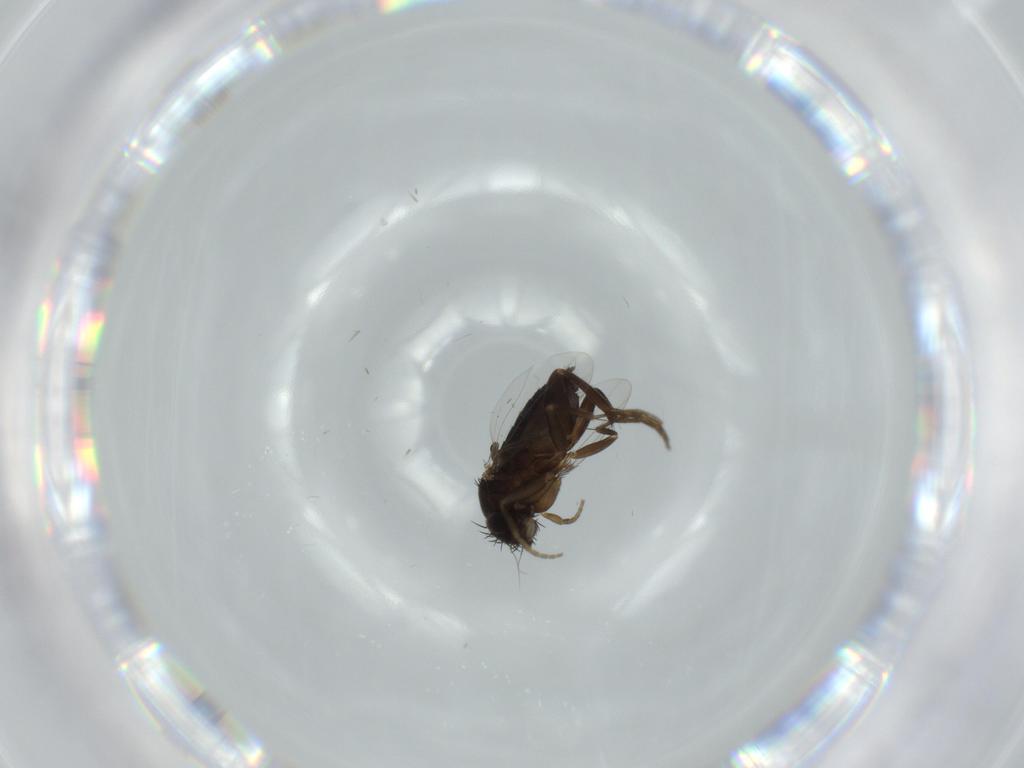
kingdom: Animalia
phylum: Arthropoda
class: Insecta
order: Diptera
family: Phoridae
